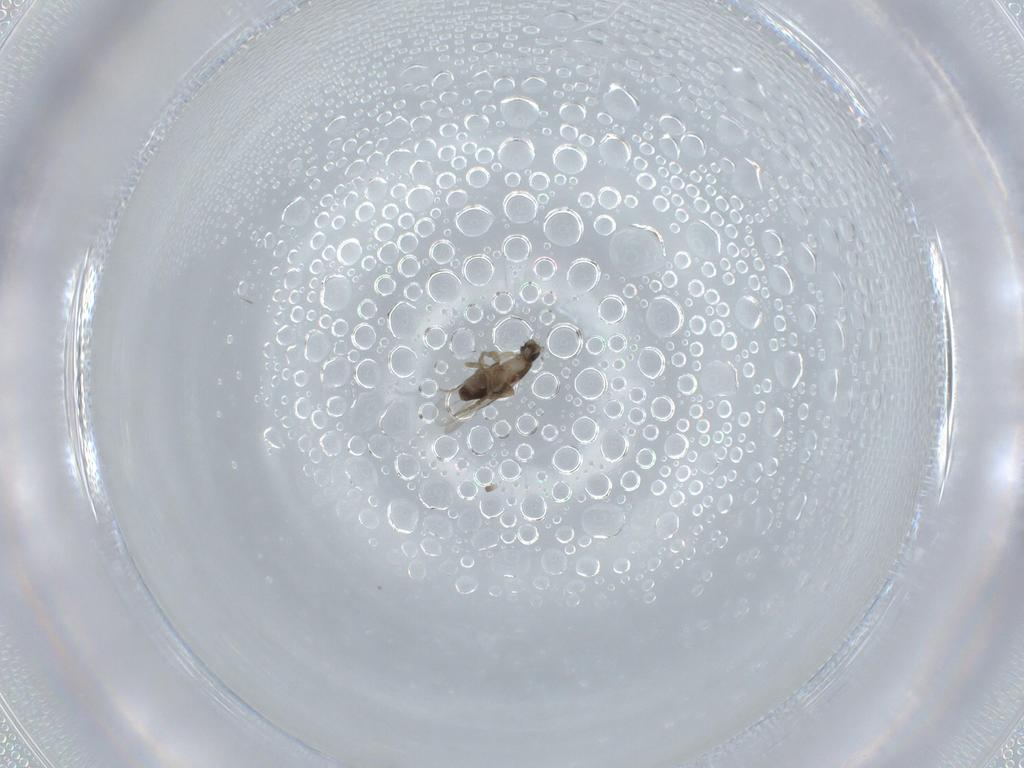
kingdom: Animalia
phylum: Arthropoda
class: Insecta
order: Diptera
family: Phoridae
